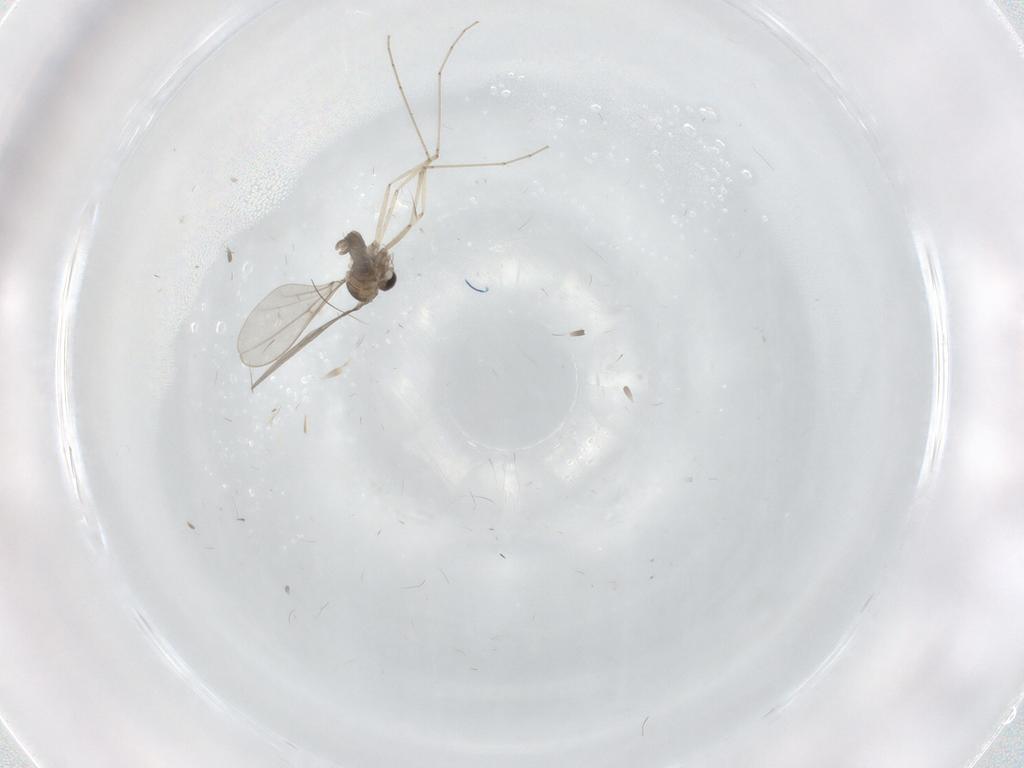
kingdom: Animalia
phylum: Arthropoda
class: Insecta
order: Diptera
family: Cecidomyiidae
